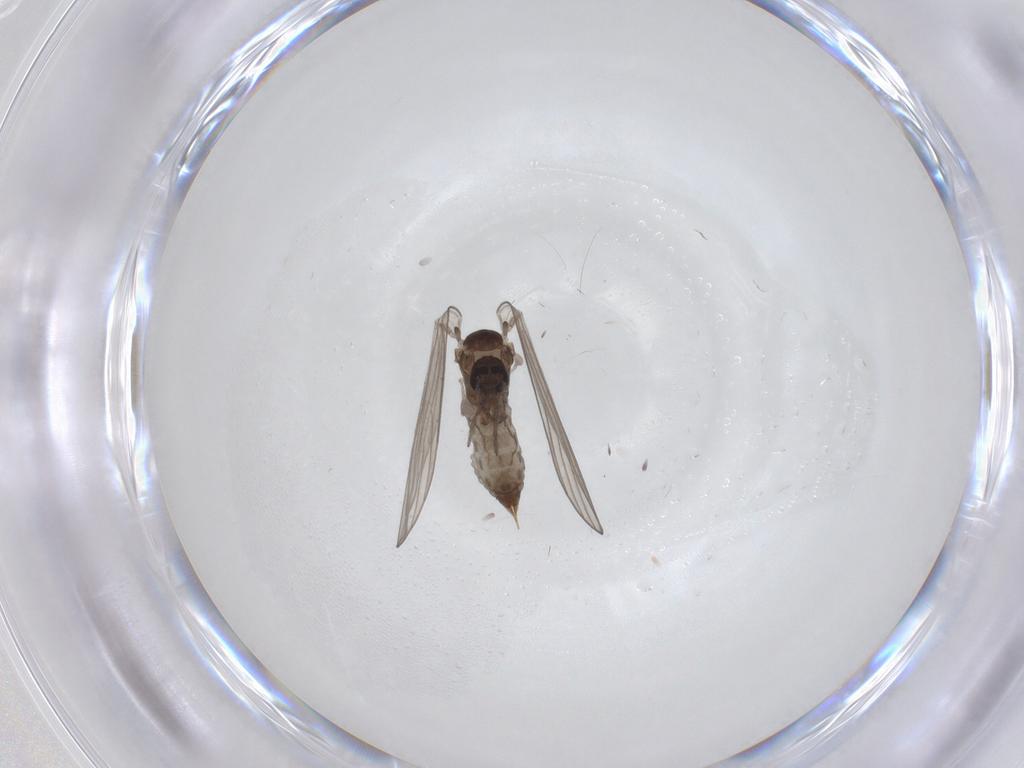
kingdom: Animalia
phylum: Arthropoda
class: Insecta
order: Diptera
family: Psychodidae
